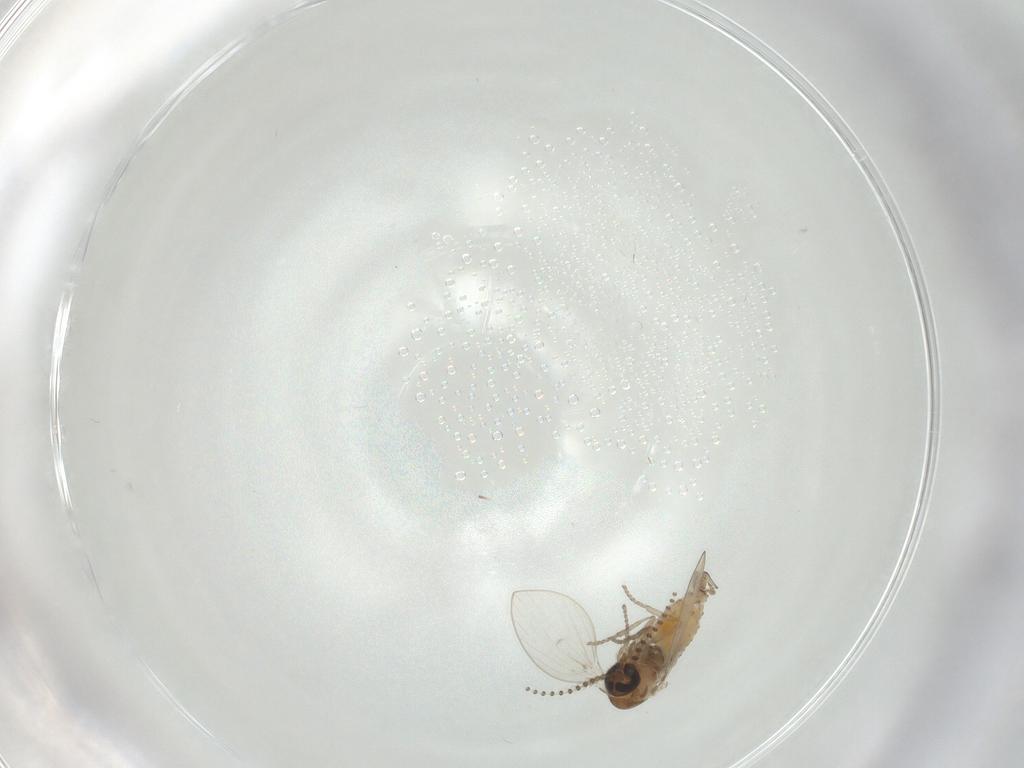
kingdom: Animalia
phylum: Arthropoda
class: Insecta
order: Diptera
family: Psychodidae
